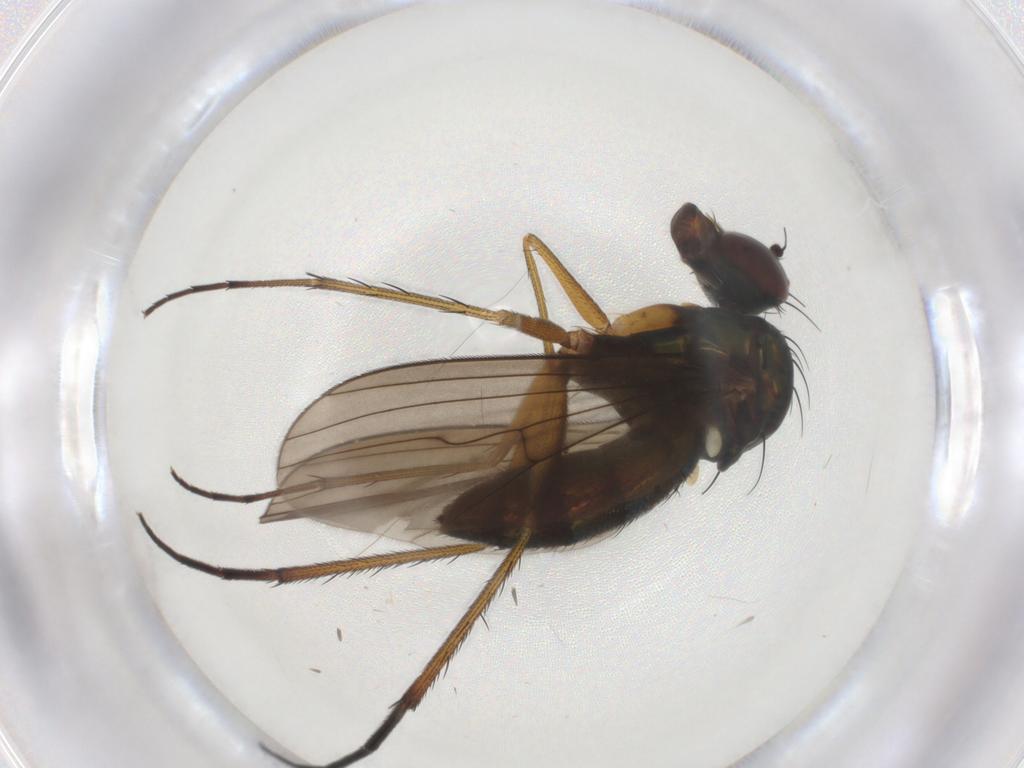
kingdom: Animalia
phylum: Arthropoda
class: Insecta
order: Diptera
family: Dolichopodidae
